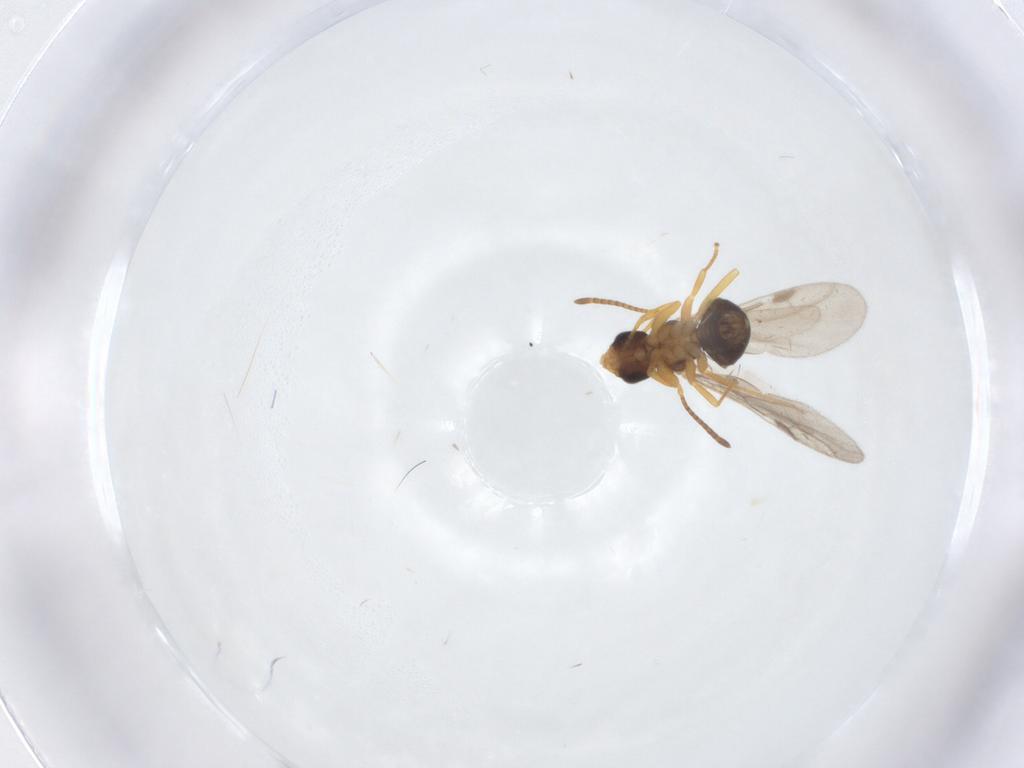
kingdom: Animalia
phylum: Arthropoda
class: Insecta
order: Hymenoptera
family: Formicidae
